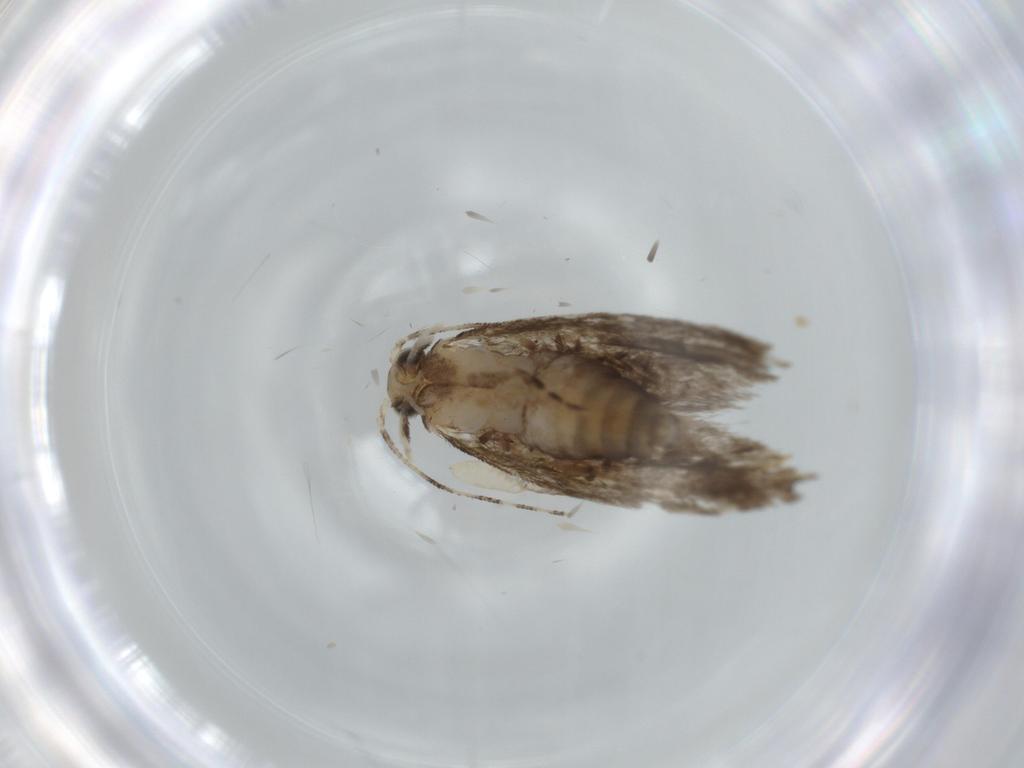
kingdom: Animalia
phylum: Arthropoda
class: Insecta
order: Lepidoptera
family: Tineidae
